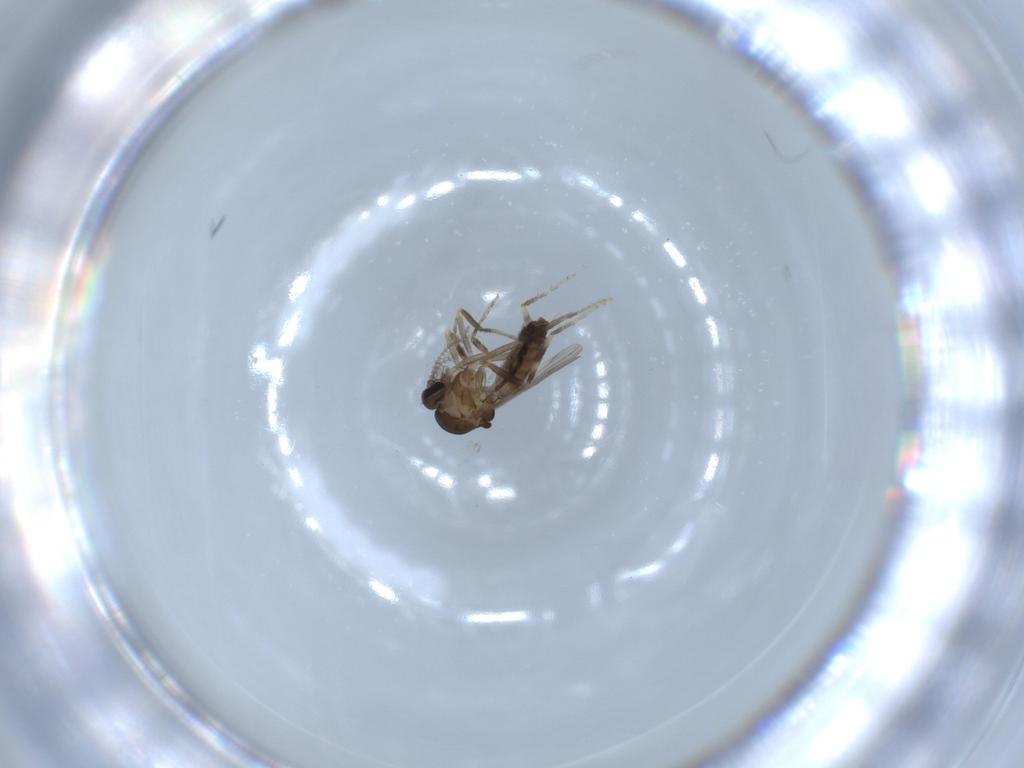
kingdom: Animalia
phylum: Arthropoda
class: Insecta
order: Diptera
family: Ceratopogonidae
